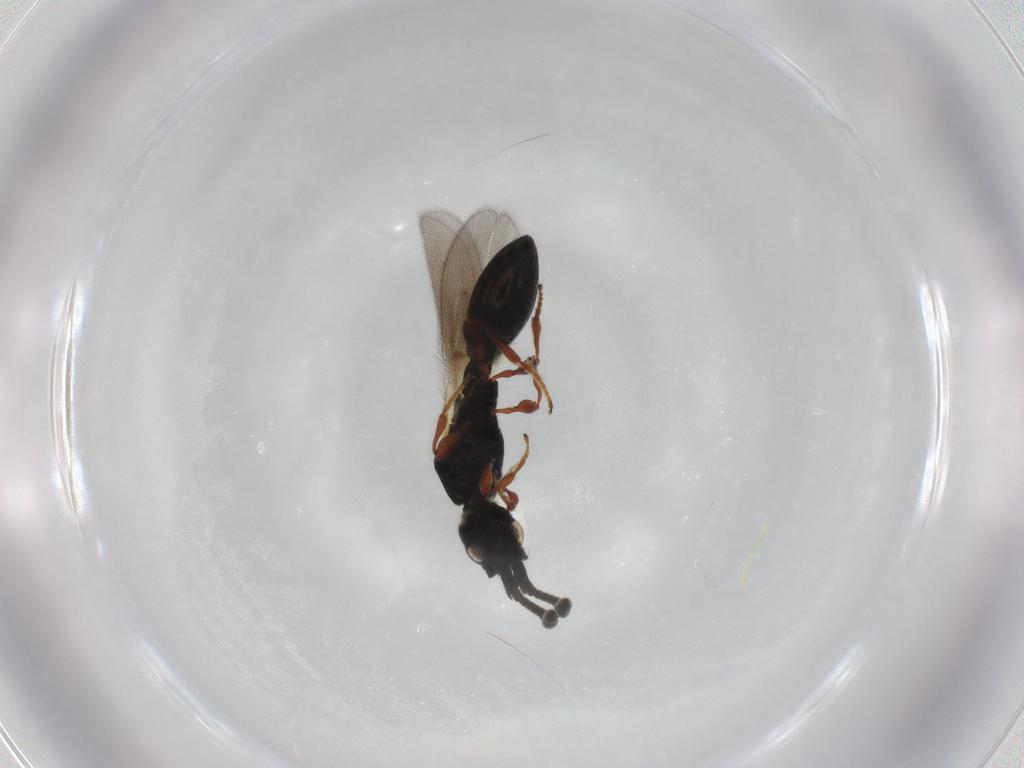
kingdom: Animalia
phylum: Arthropoda
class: Insecta
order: Hymenoptera
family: Diapriidae
